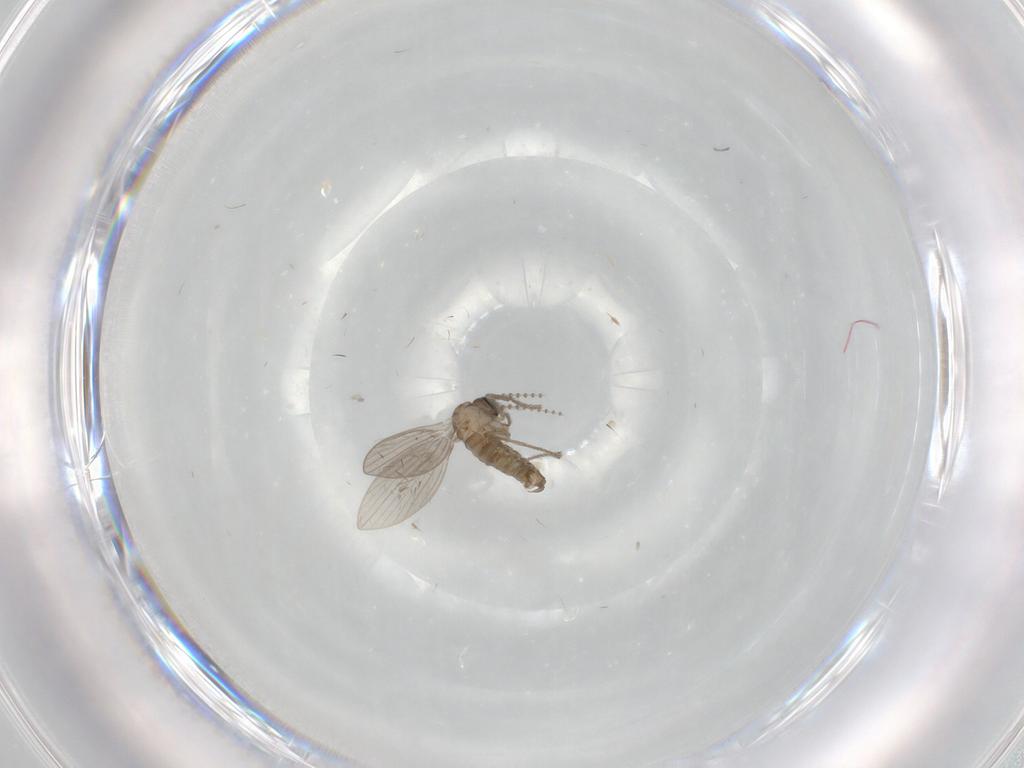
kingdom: Animalia
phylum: Arthropoda
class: Insecta
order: Diptera
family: Psychodidae
